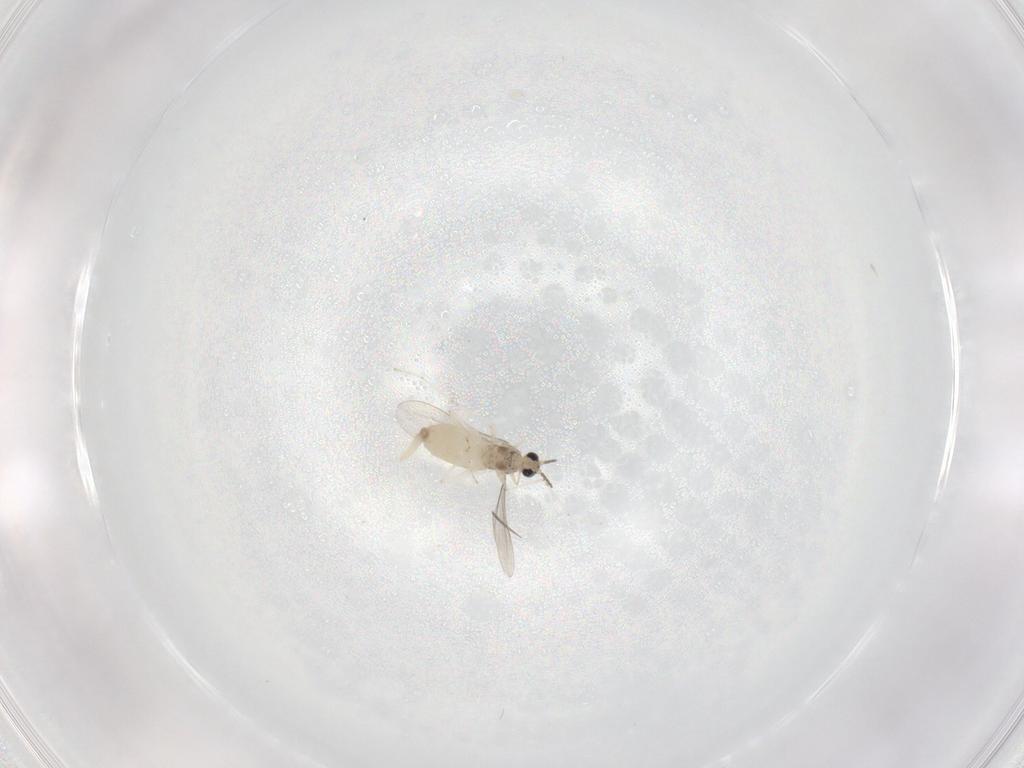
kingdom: Animalia
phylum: Arthropoda
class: Insecta
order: Diptera
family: Cecidomyiidae
